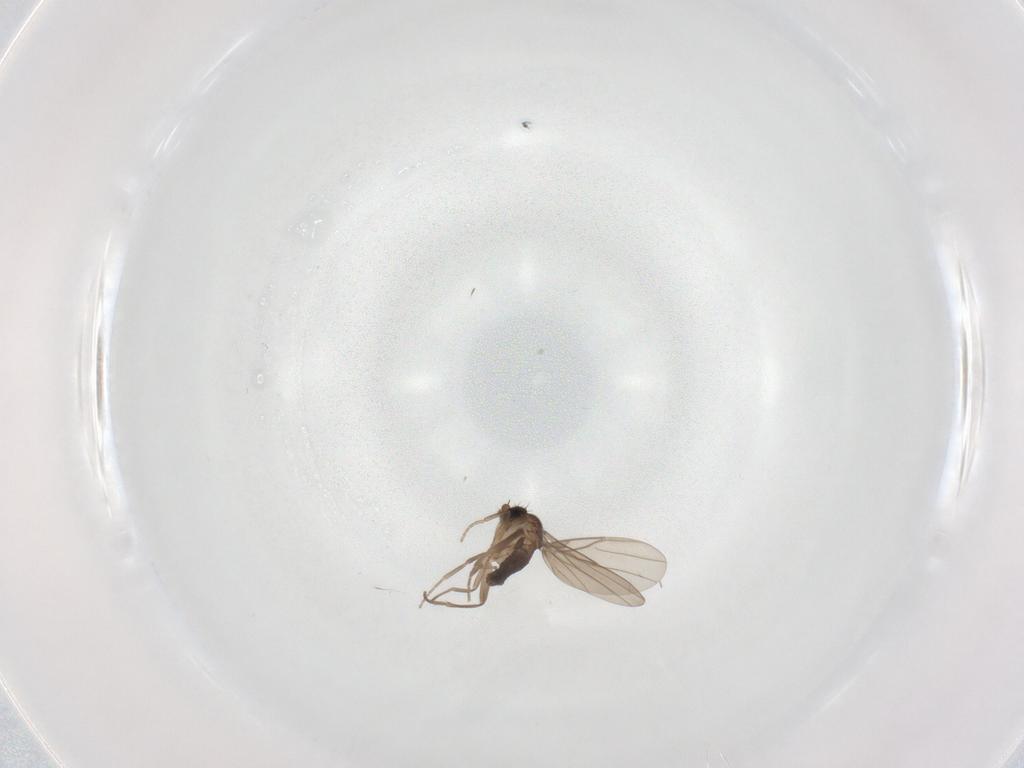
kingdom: Animalia
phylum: Arthropoda
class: Insecta
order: Diptera
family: Phoridae
